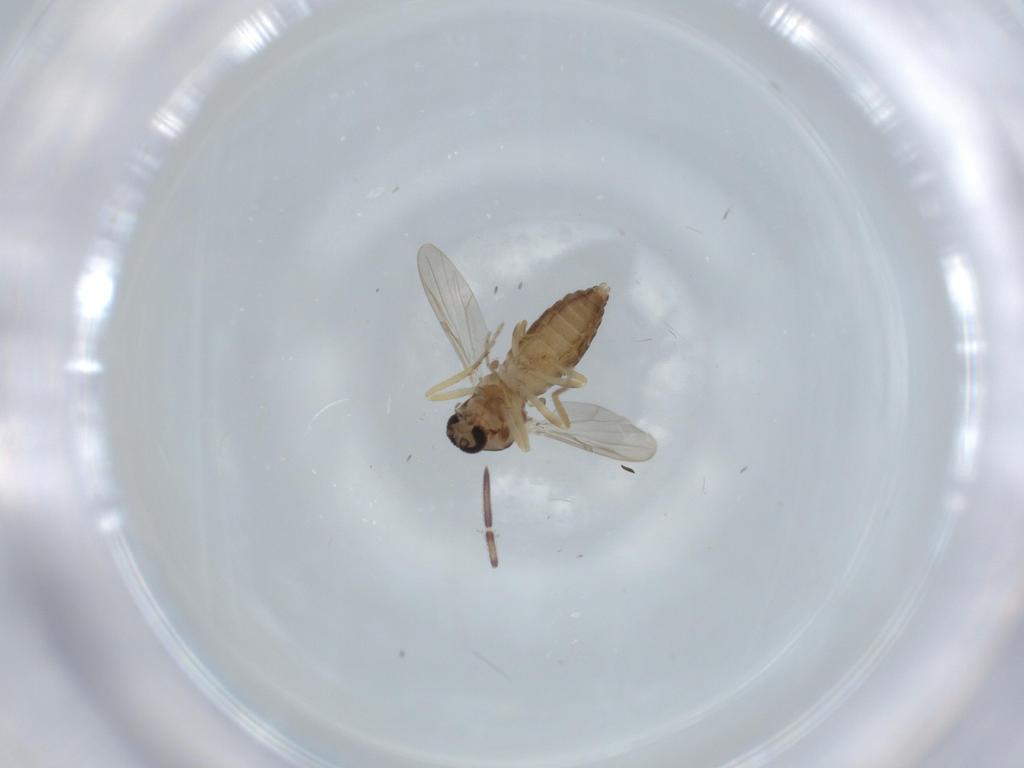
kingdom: Animalia
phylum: Arthropoda
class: Insecta
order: Diptera
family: Ceratopogonidae
